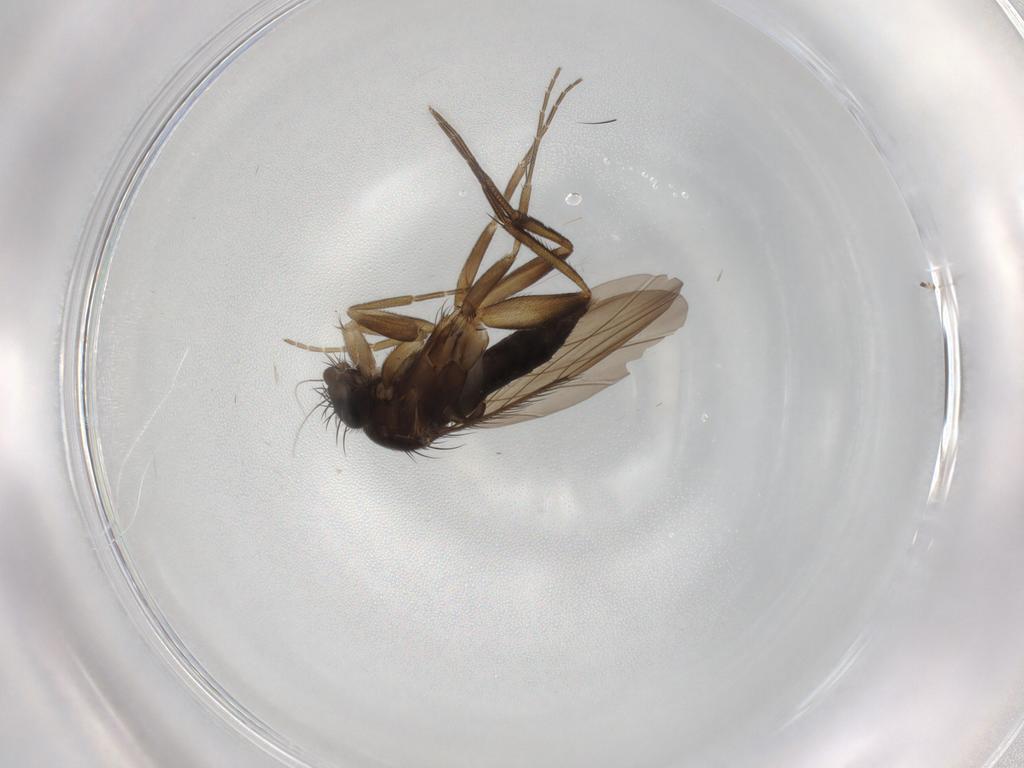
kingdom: Animalia
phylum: Arthropoda
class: Insecta
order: Diptera
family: Phoridae
